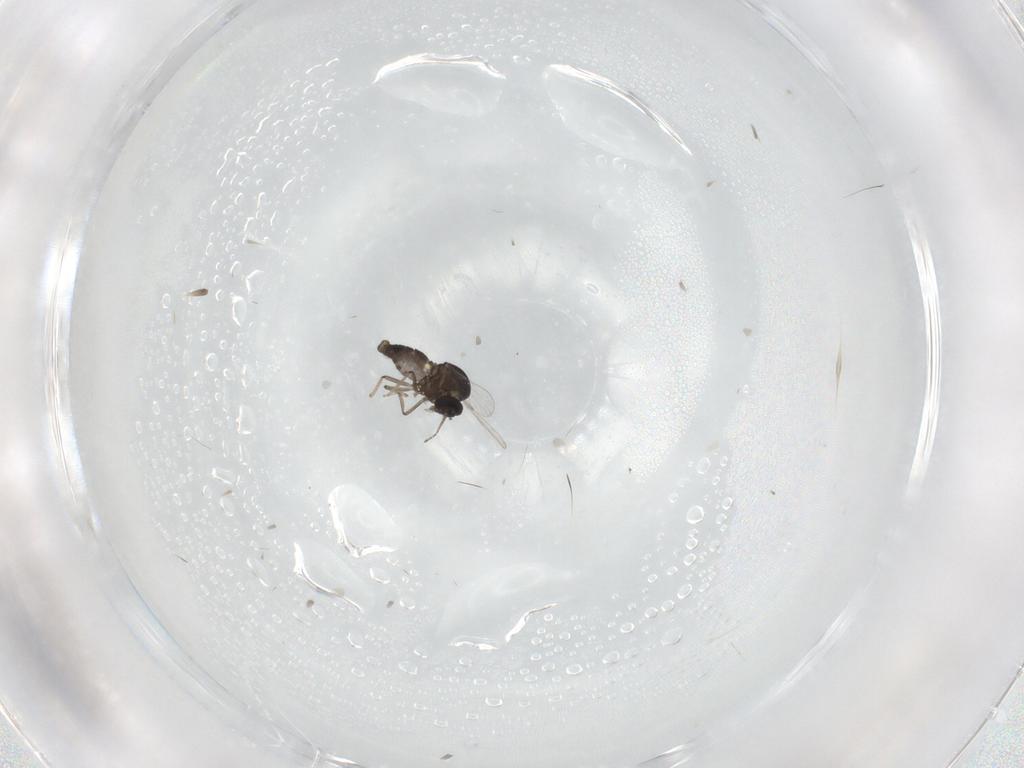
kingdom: Animalia
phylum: Arthropoda
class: Insecta
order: Diptera
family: Ceratopogonidae
